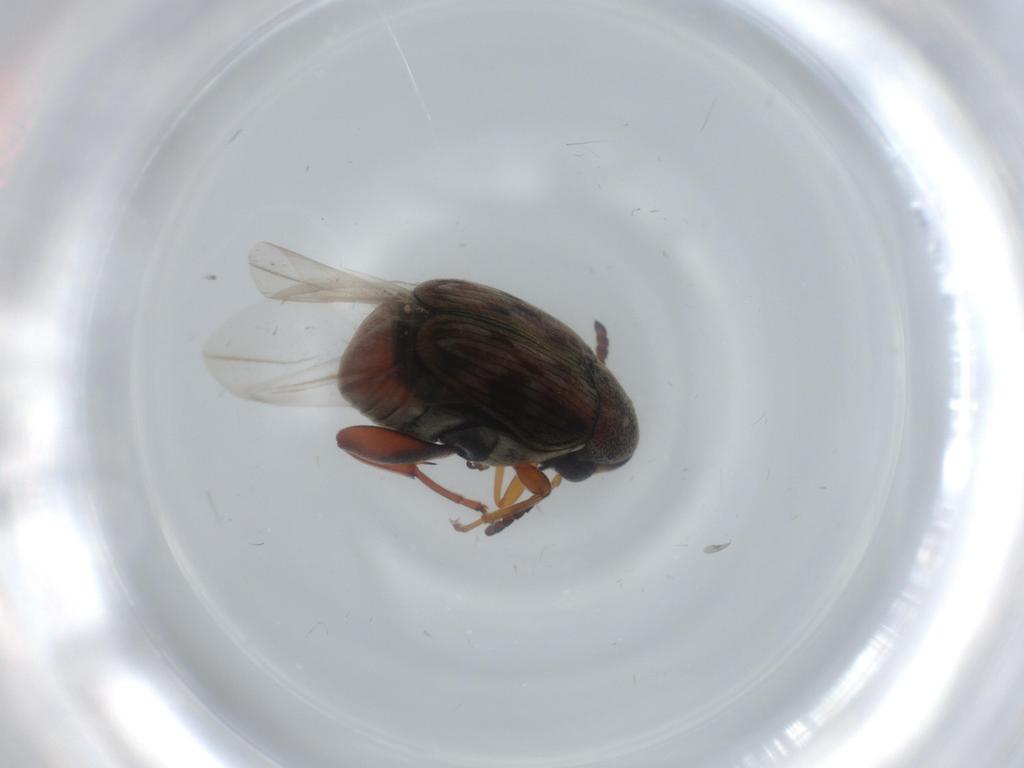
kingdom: Animalia
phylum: Arthropoda
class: Insecta
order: Coleoptera
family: Chrysomelidae
